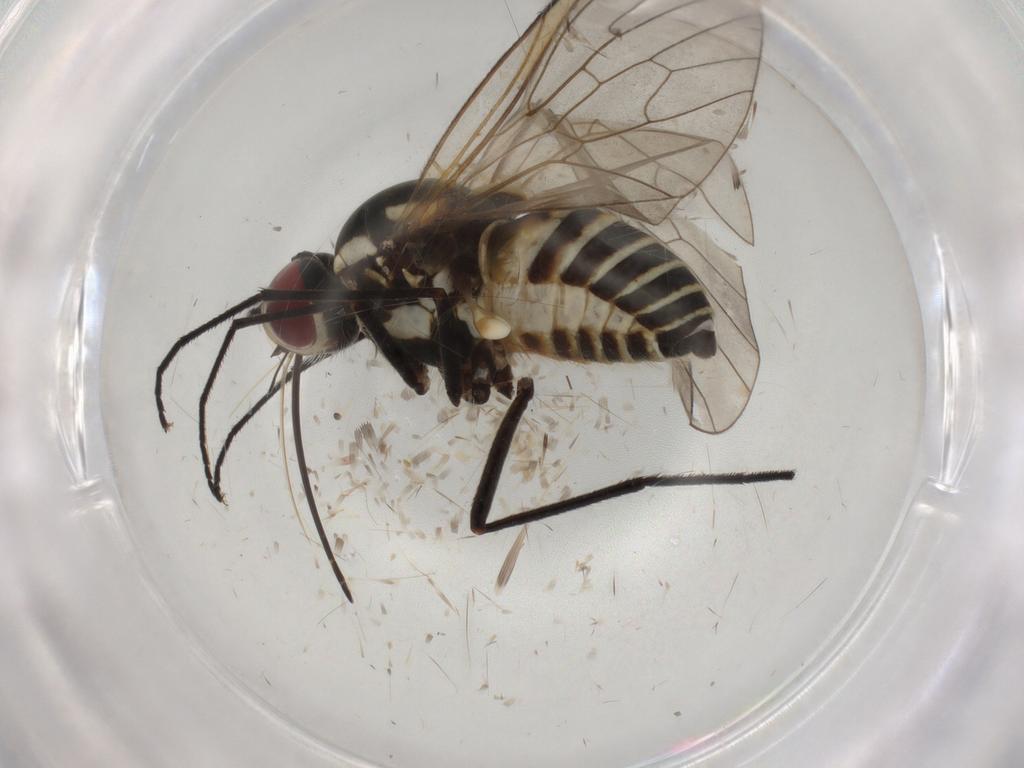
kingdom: Animalia
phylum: Arthropoda
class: Insecta
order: Diptera
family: Bombyliidae
